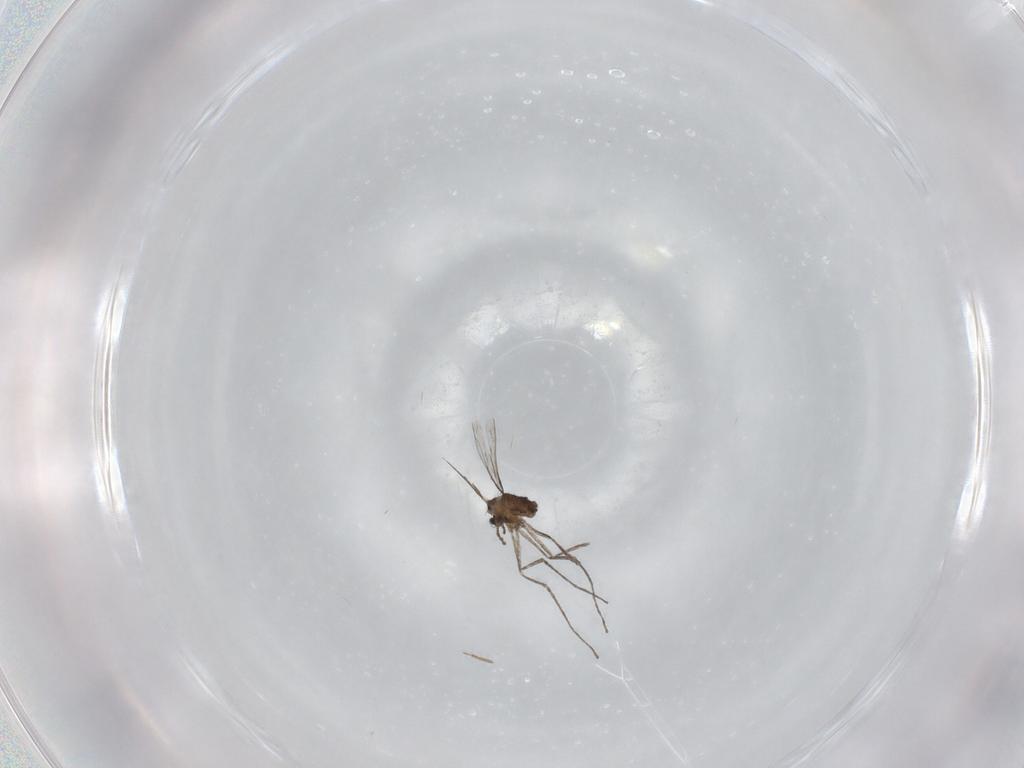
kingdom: Animalia
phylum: Arthropoda
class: Insecta
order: Diptera
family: Cecidomyiidae
